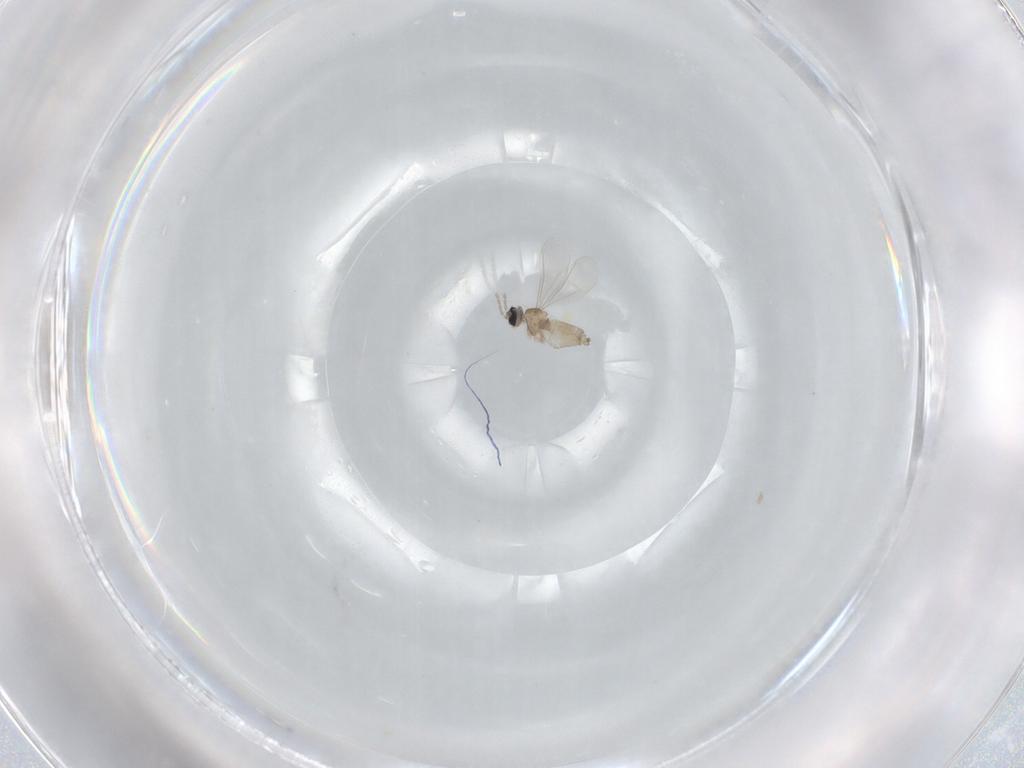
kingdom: Animalia
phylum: Arthropoda
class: Insecta
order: Diptera
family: Cecidomyiidae
